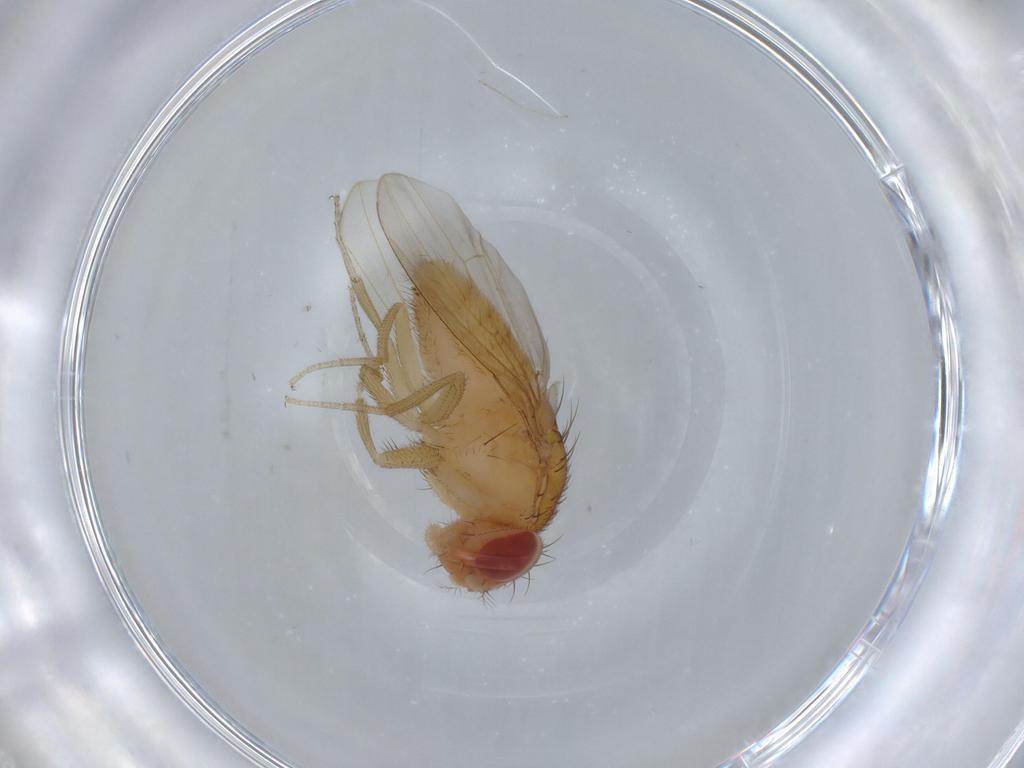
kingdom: Animalia
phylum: Arthropoda
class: Insecta
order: Diptera
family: Drosophilidae
